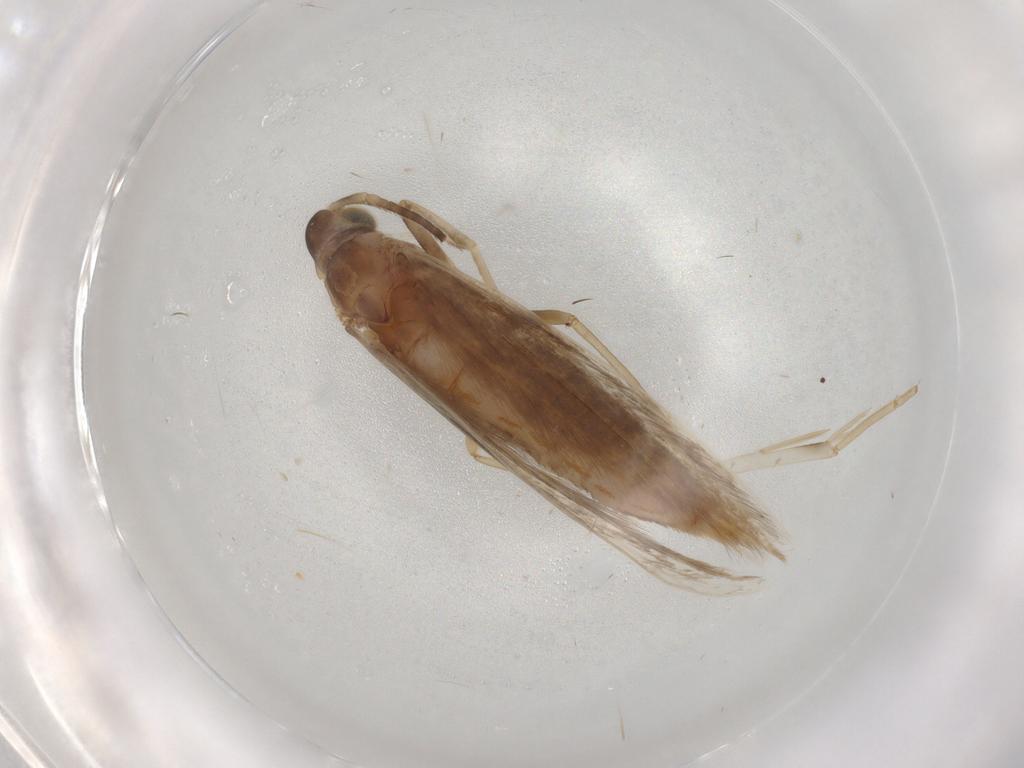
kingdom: Animalia
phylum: Arthropoda
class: Insecta
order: Lepidoptera
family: Coleophoridae
